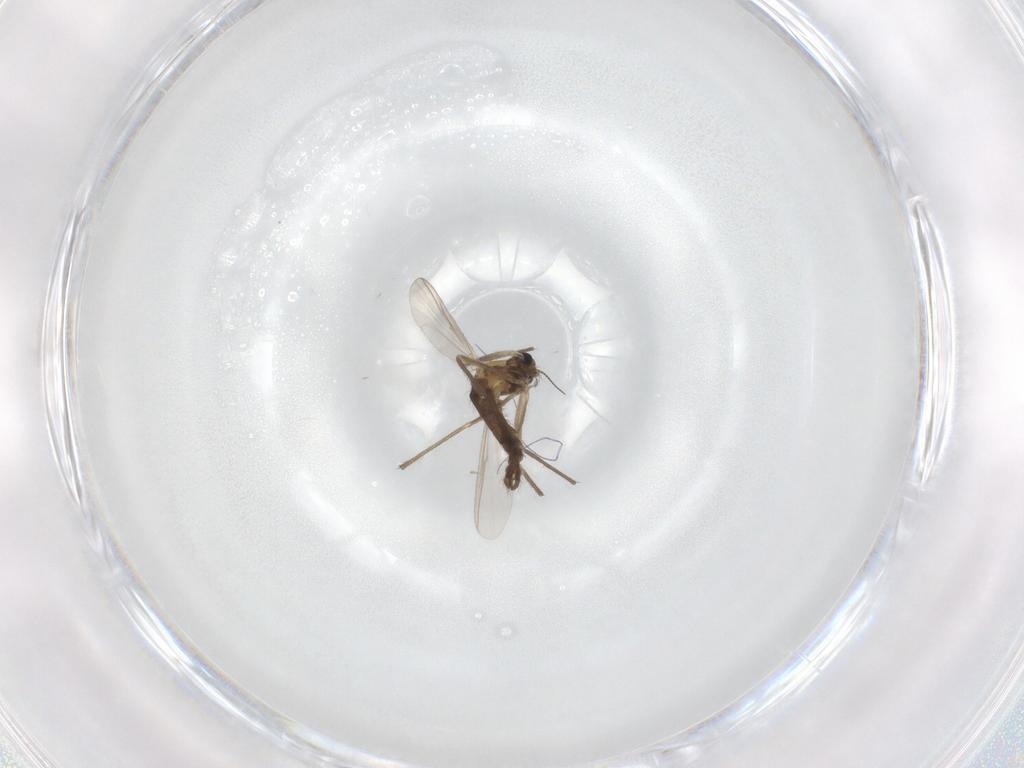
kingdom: Animalia
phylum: Arthropoda
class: Insecta
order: Diptera
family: Chironomidae
